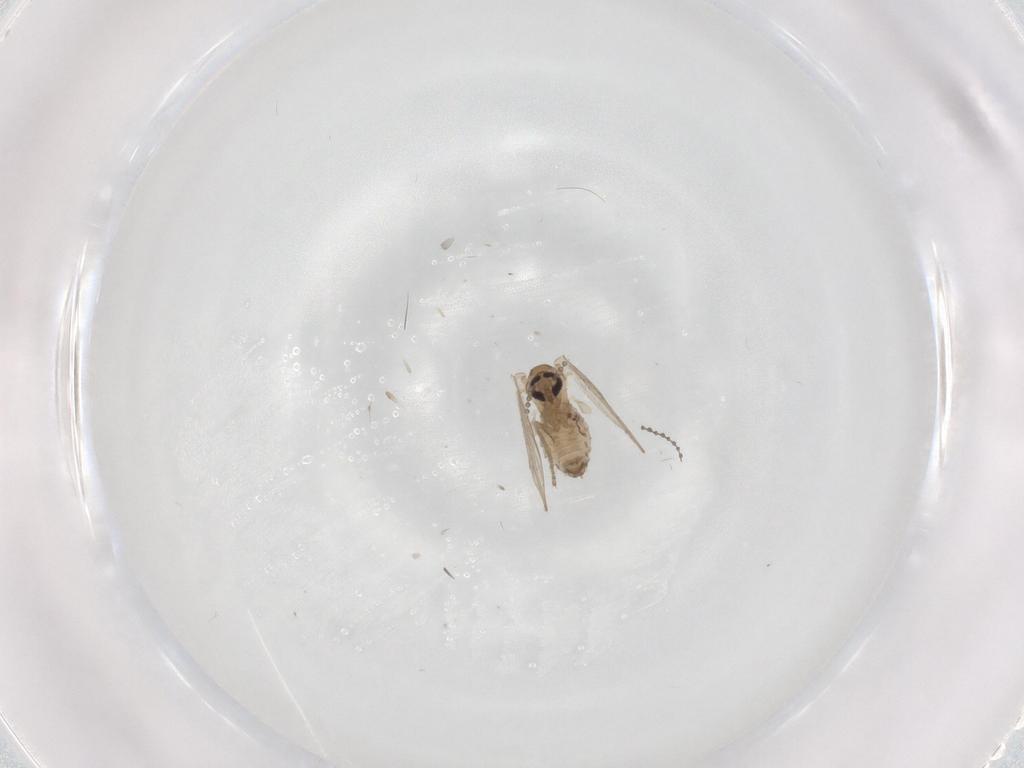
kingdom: Animalia
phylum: Arthropoda
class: Insecta
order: Diptera
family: Psychodidae
